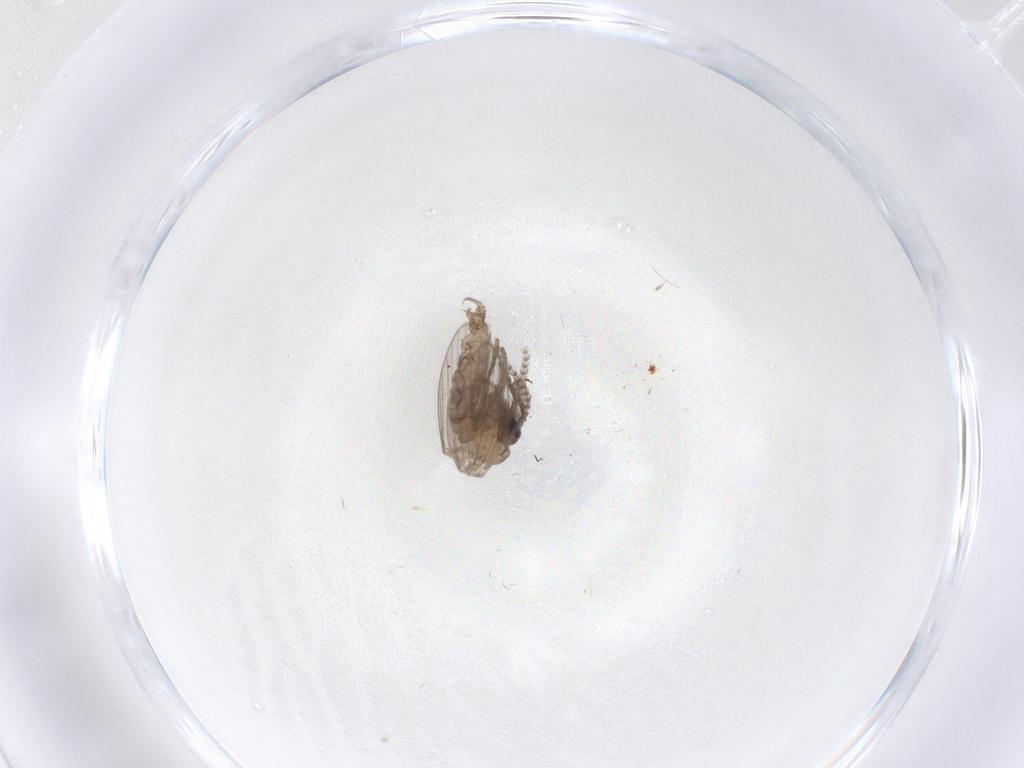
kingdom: Animalia
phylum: Arthropoda
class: Insecta
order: Diptera
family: Psychodidae
